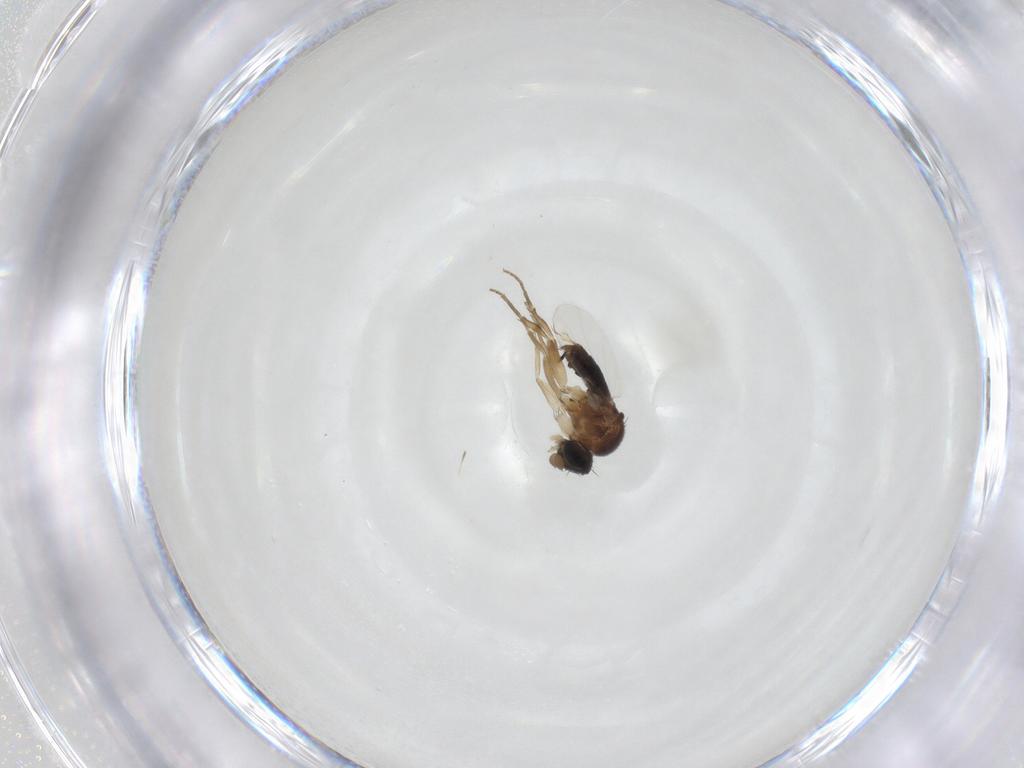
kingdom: Animalia
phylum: Arthropoda
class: Insecta
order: Diptera
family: Phoridae
